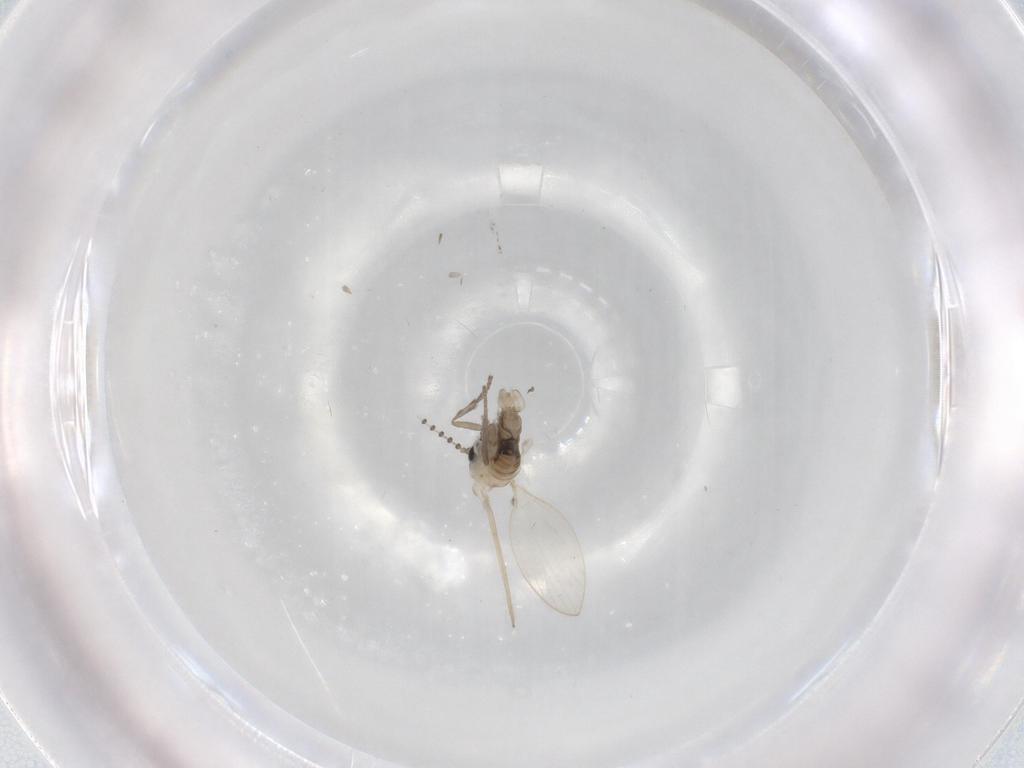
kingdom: Animalia
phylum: Arthropoda
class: Insecta
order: Diptera
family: Psychodidae
